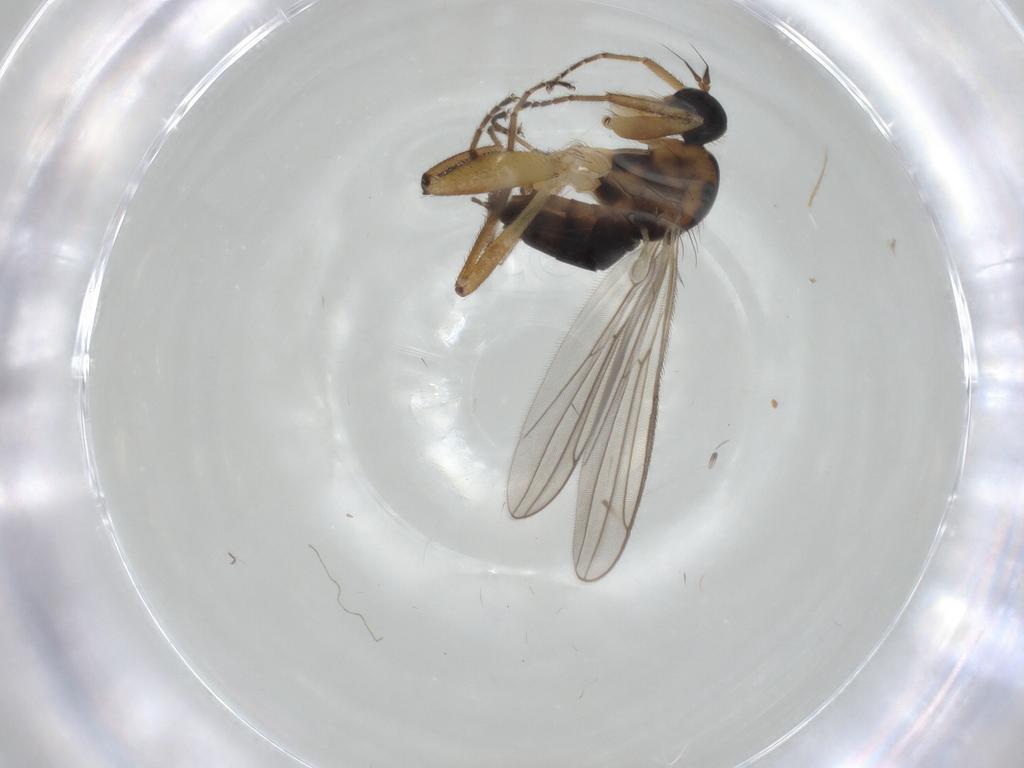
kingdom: Animalia
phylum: Arthropoda
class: Insecta
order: Diptera
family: Hybotidae
